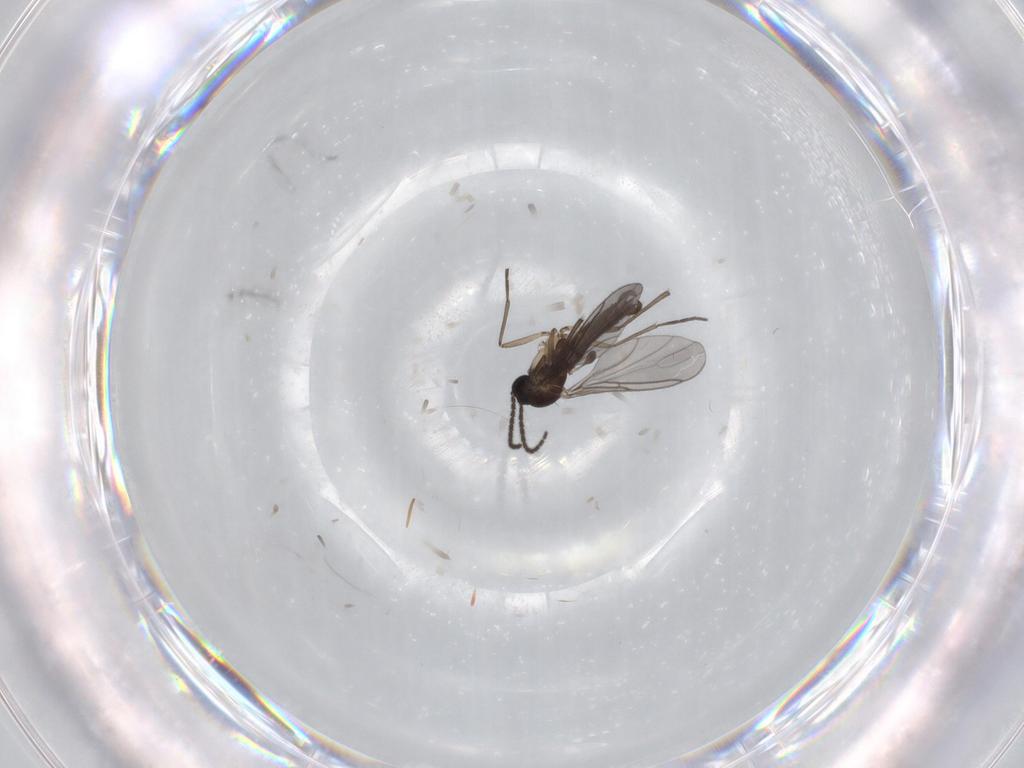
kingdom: Animalia
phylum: Arthropoda
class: Insecta
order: Diptera
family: Sciaridae
